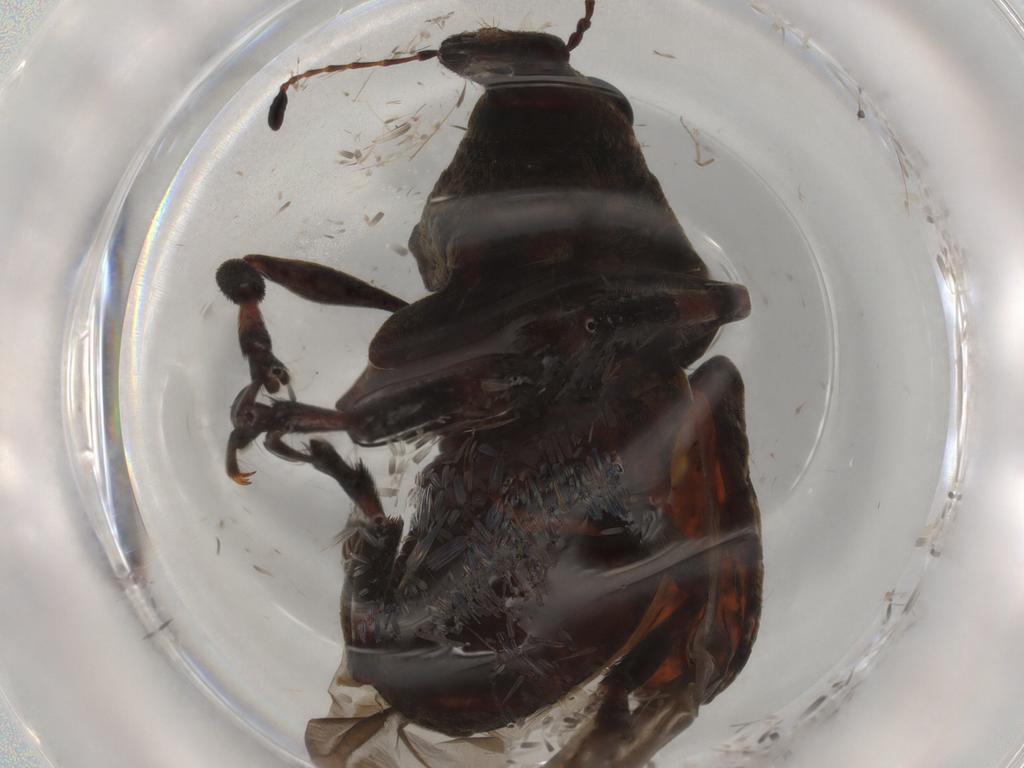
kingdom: Animalia
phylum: Arthropoda
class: Insecta
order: Coleoptera
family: Anthribidae
